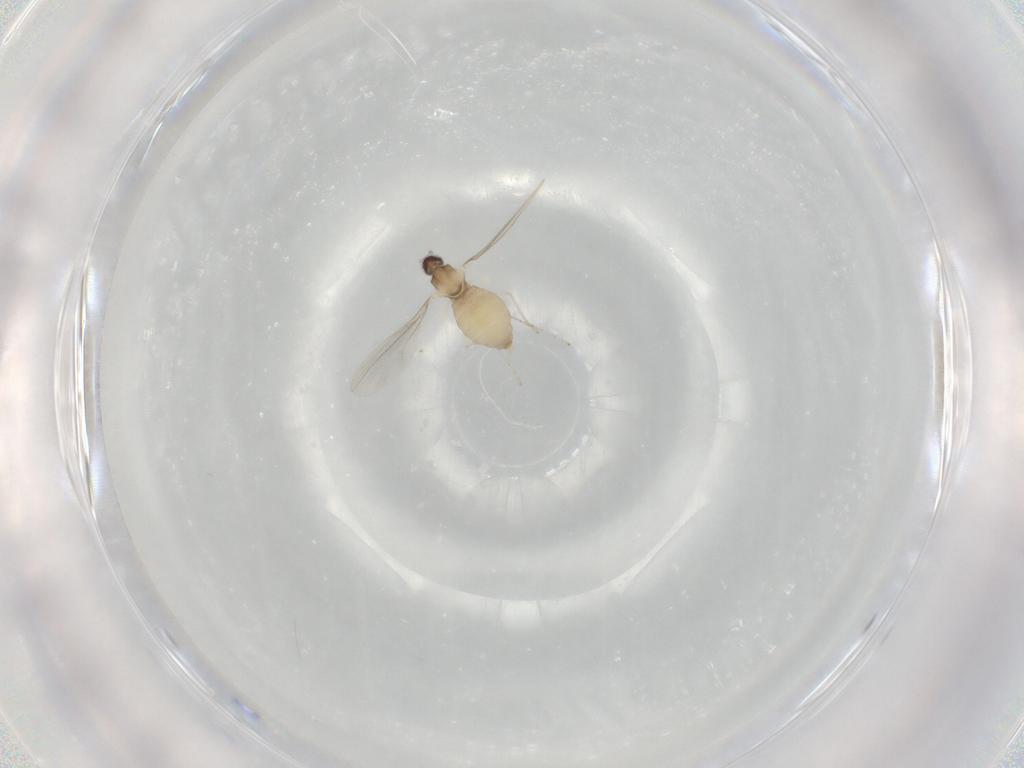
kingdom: Animalia
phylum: Arthropoda
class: Insecta
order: Diptera
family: Cecidomyiidae
